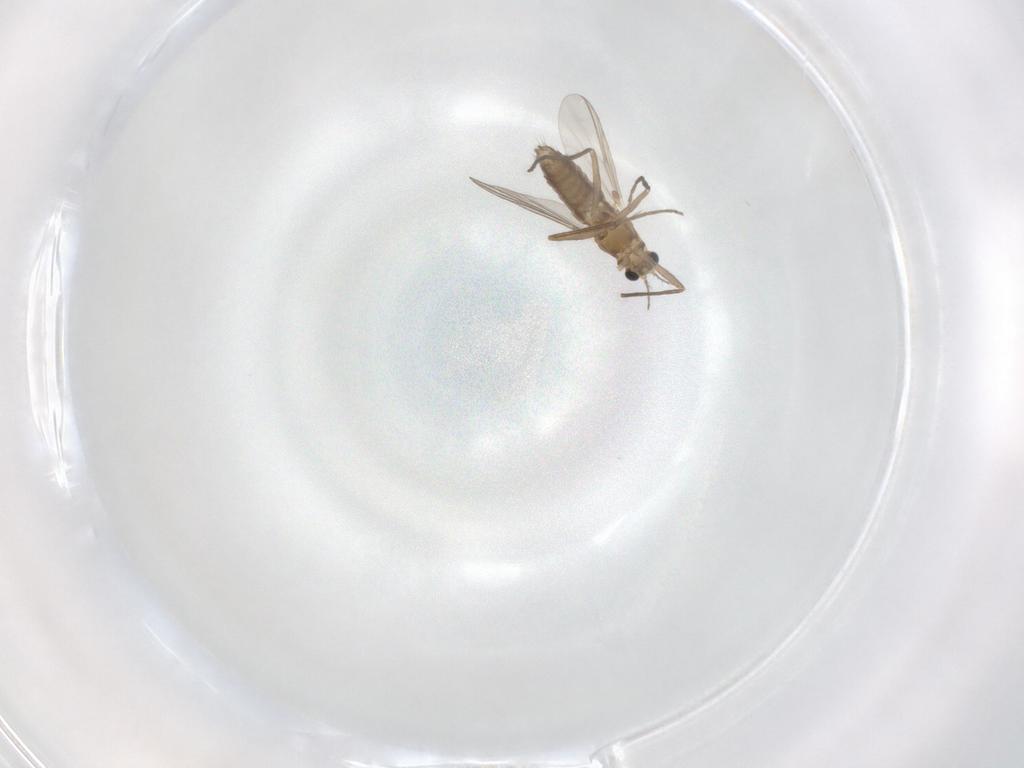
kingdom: Animalia
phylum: Arthropoda
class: Insecta
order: Diptera
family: Chironomidae
